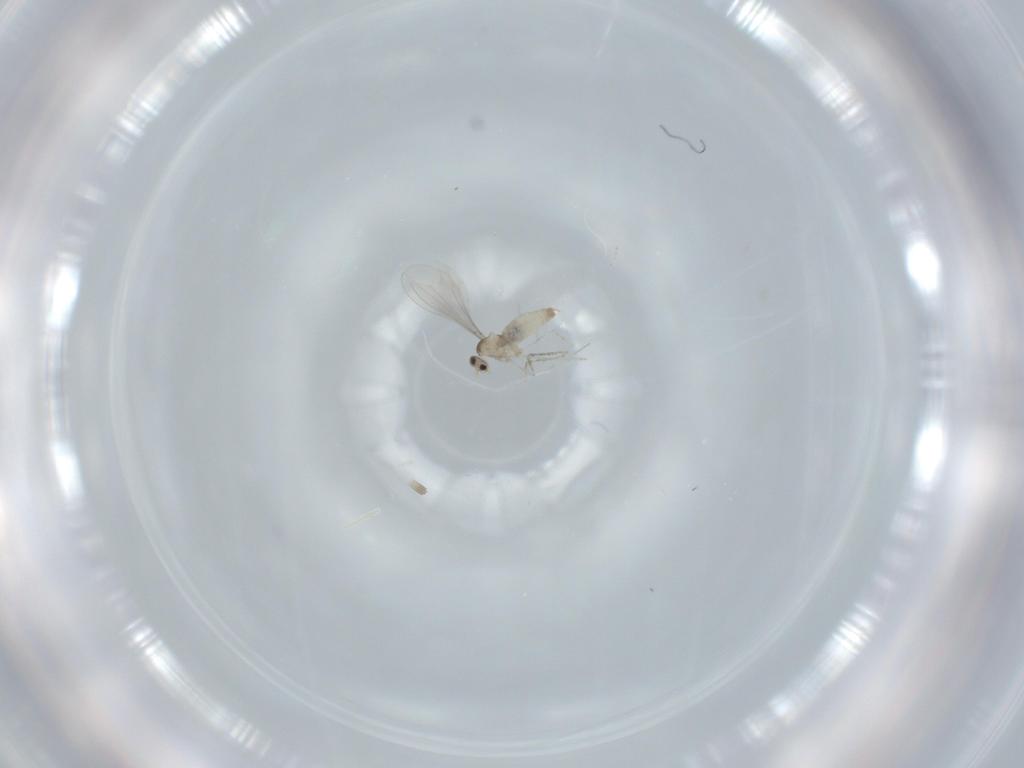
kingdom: Animalia
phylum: Arthropoda
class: Insecta
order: Diptera
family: Cecidomyiidae
